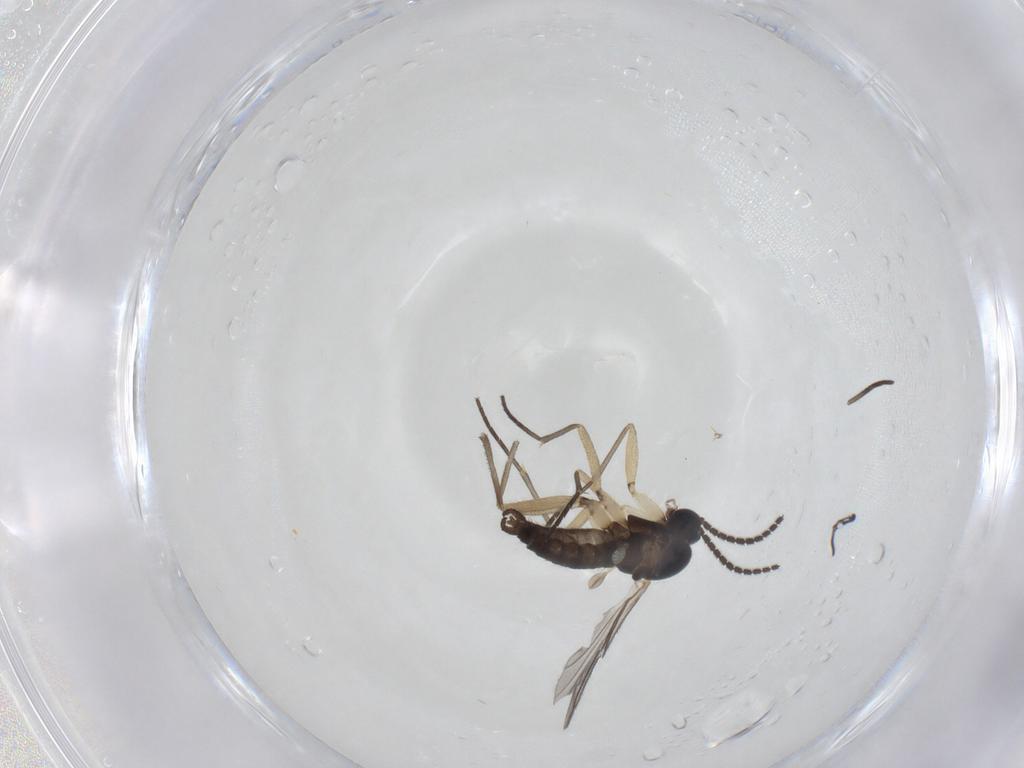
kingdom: Animalia
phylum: Arthropoda
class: Insecta
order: Diptera
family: Sciaridae
